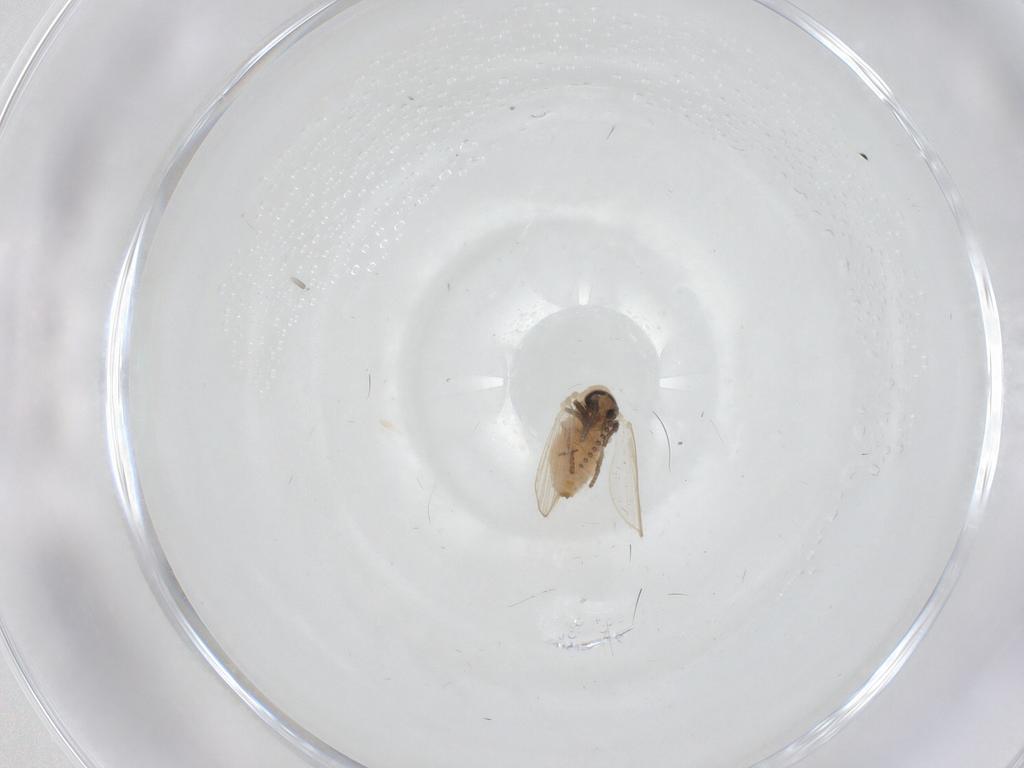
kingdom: Animalia
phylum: Arthropoda
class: Insecta
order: Diptera
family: Psychodidae
